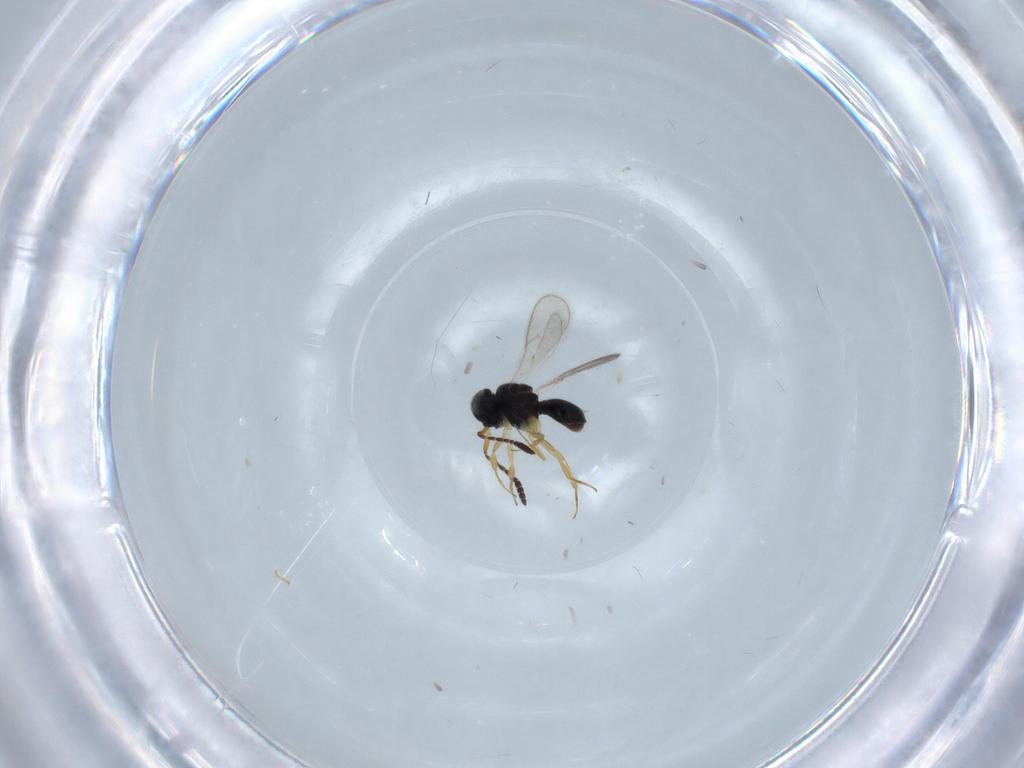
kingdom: Animalia
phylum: Arthropoda
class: Insecta
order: Hymenoptera
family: Scelionidae
